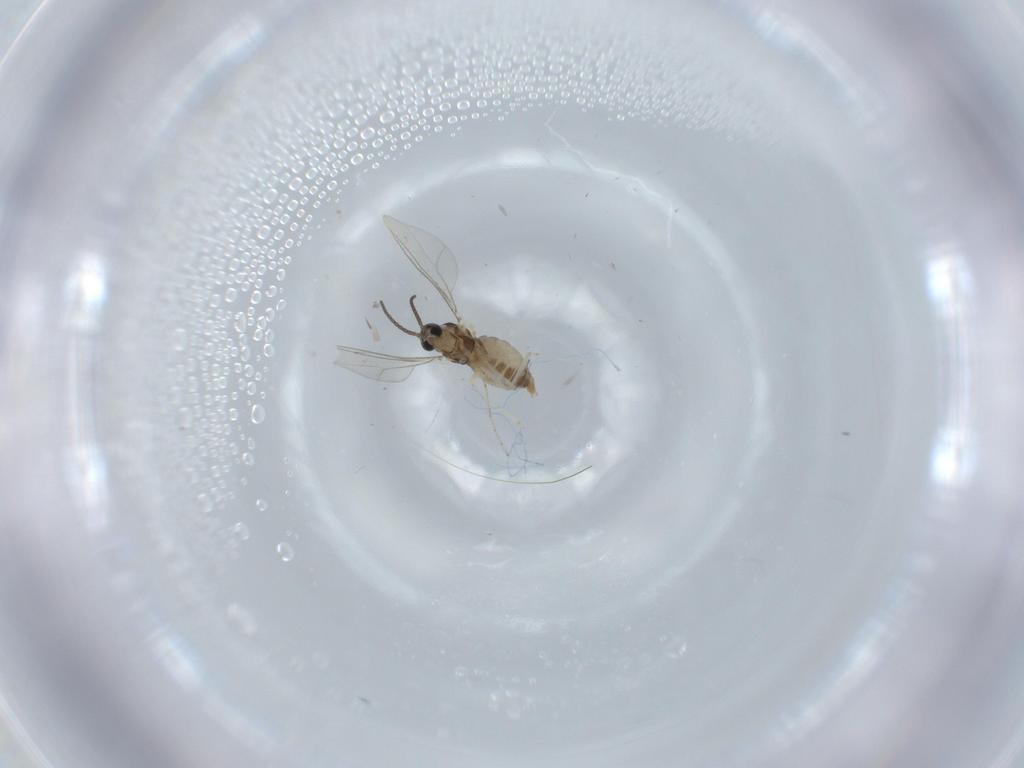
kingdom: Animalia
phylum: Arthropoda
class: Insecta
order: Diptera
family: Cecidomyiidae
